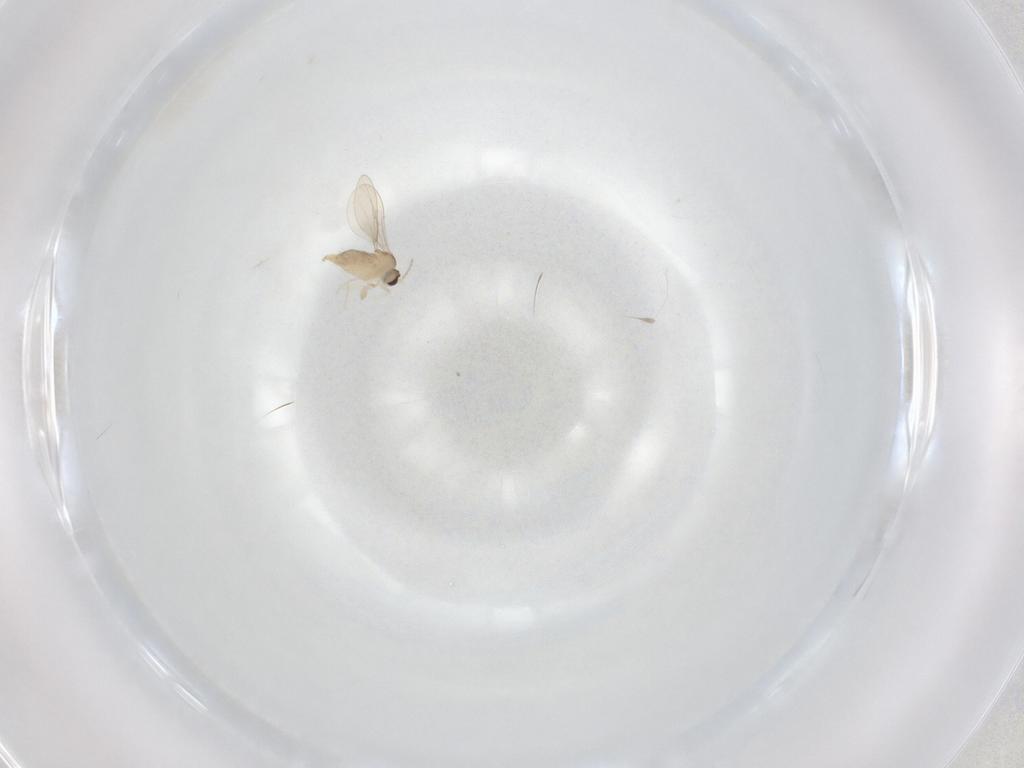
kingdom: Animalia
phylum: Arthropoda
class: Insecta
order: Diptera
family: Cecidomyiidae
